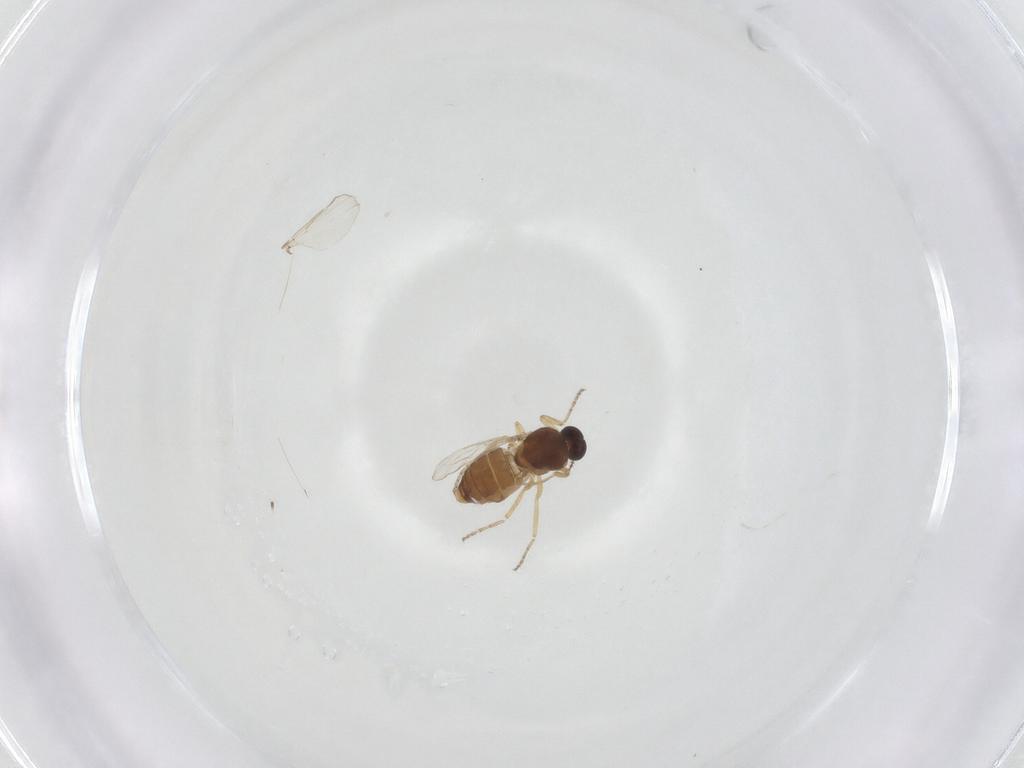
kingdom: Animalia
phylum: Arthropoda
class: Insecta
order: Diptera
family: Ceratopogonidae
